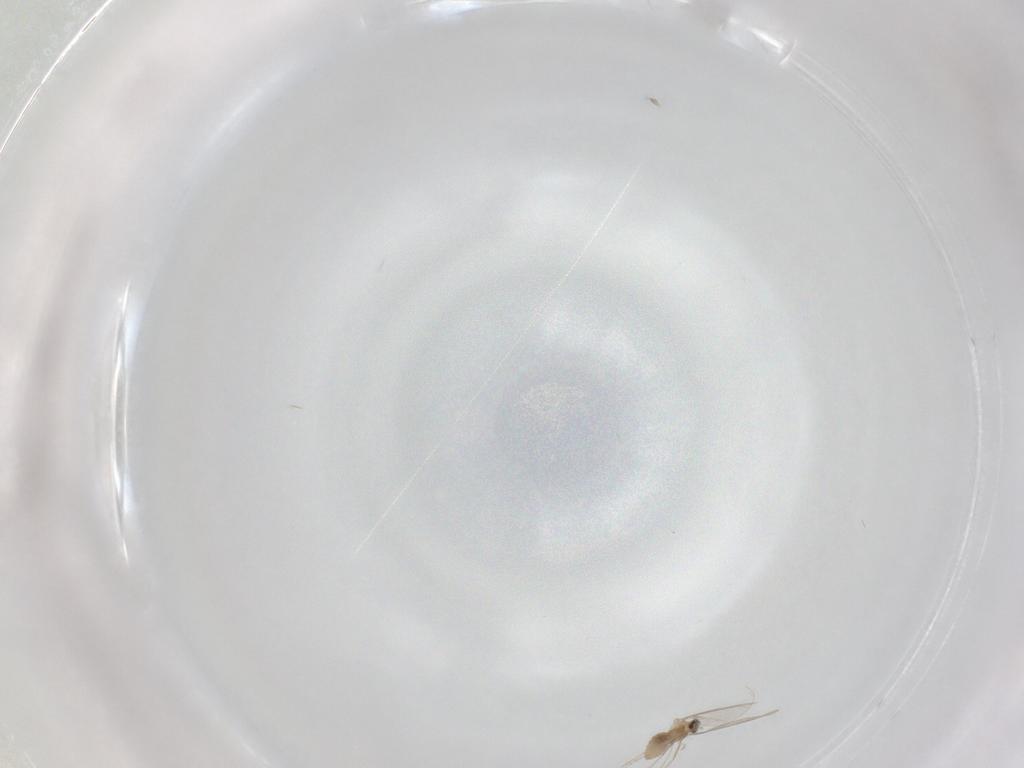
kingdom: Animalia
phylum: Arthropoda
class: Insecta
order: Diptera
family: Cecidomyiidae
